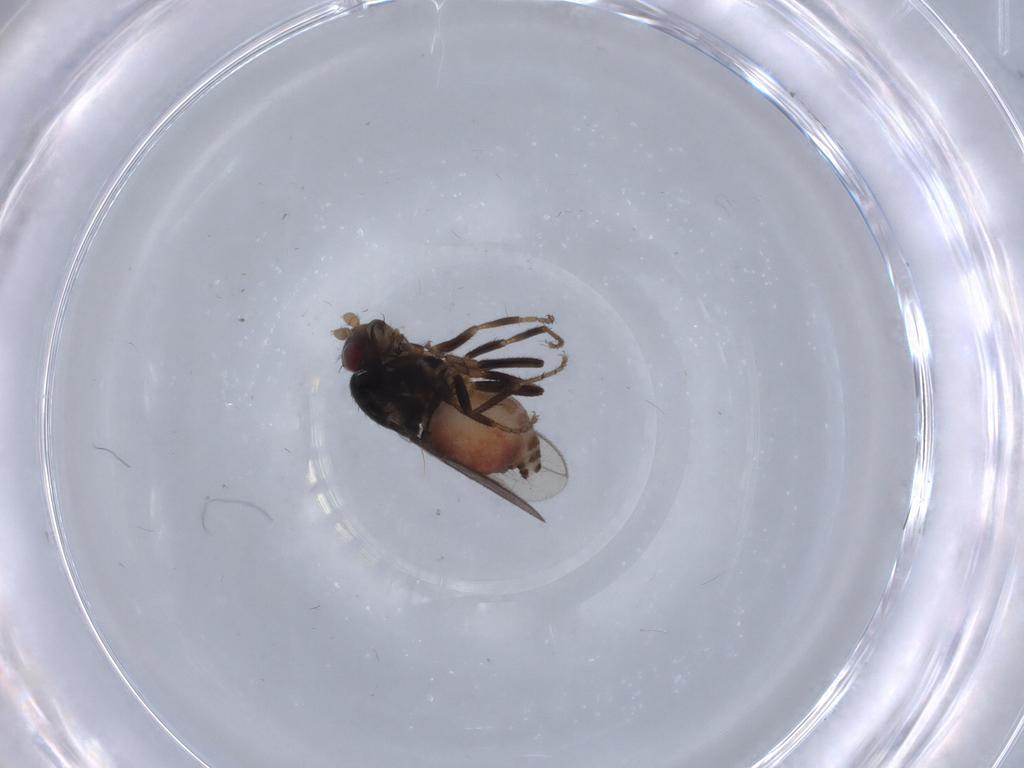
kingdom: Animalia
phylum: Arthropoda
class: Insecta
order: Diptera
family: Sphaeroceridae
